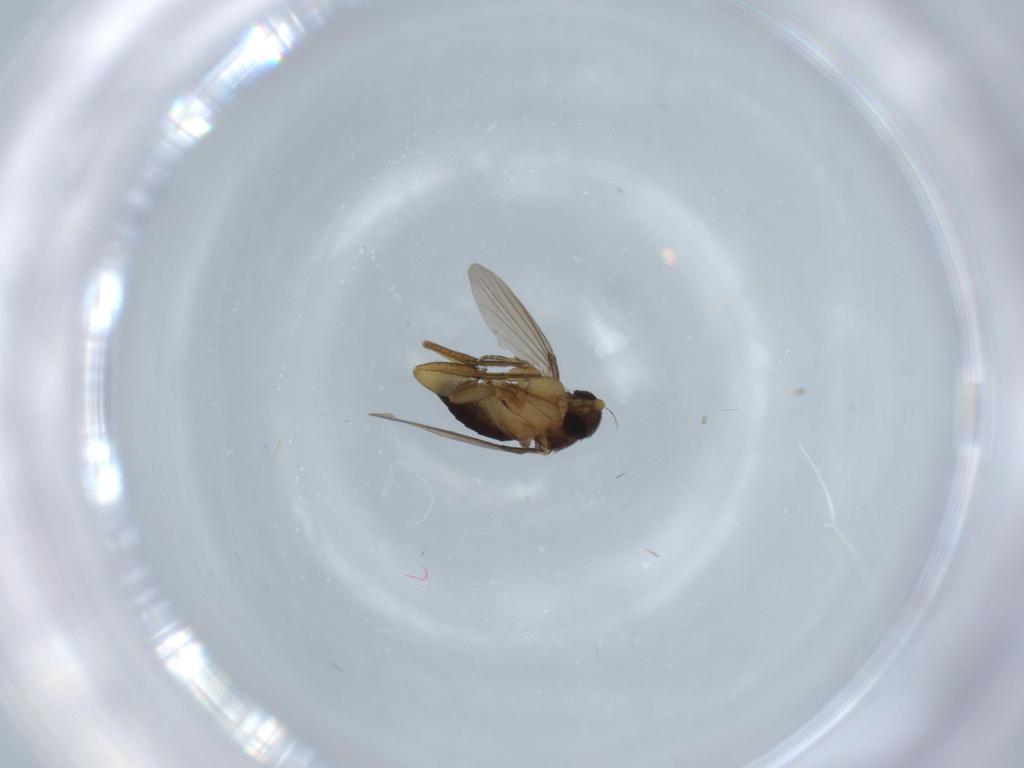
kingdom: Animalia
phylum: Arthropoda
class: Insecta
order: Diptera
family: Phoridae
